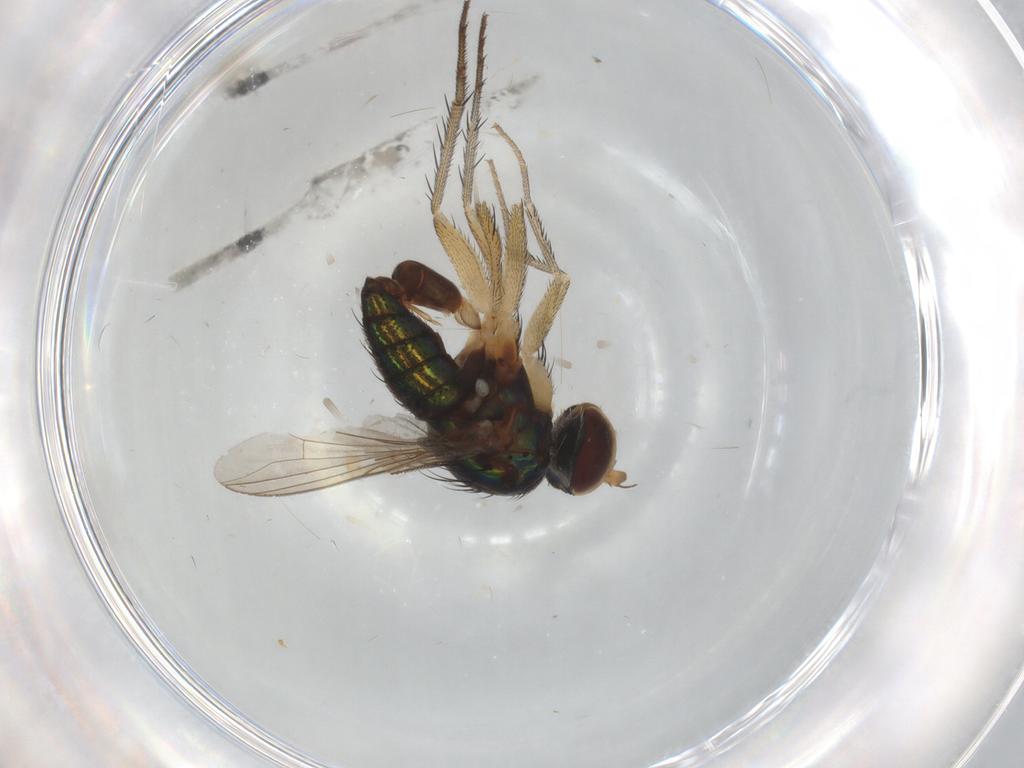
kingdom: Animalia
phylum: Arthropoda
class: Insecta
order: Diptera
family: Dolichopodidae
